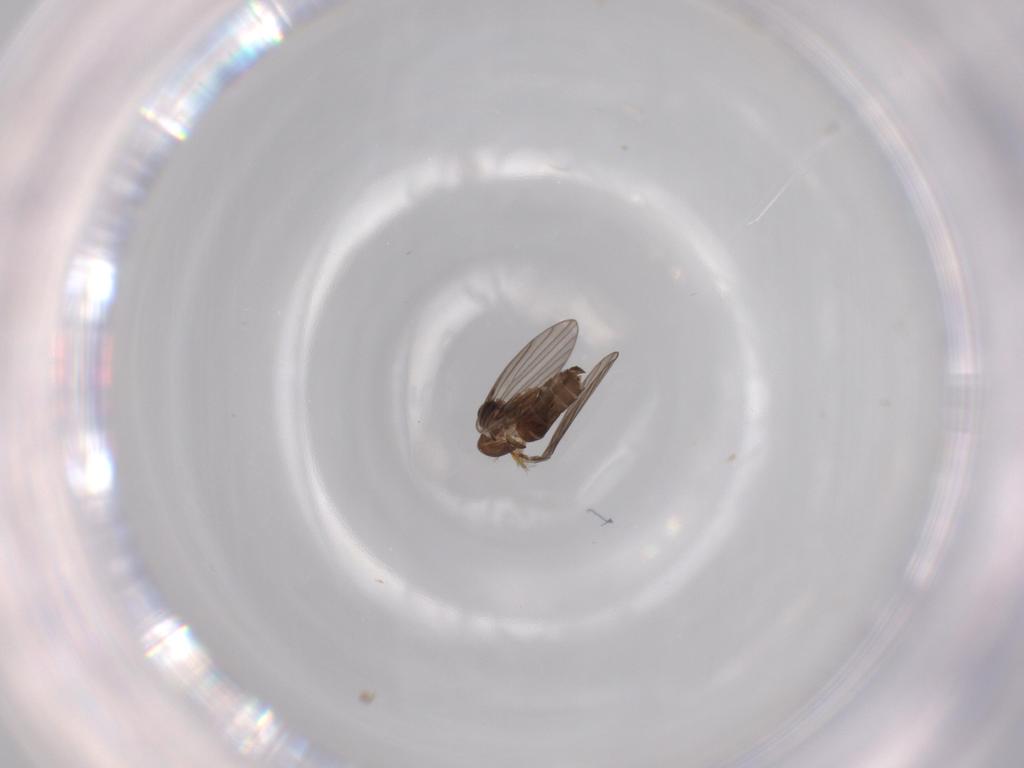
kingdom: Animalia
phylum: Arthropoda
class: Insecta
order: Diptera
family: Psychodidae
